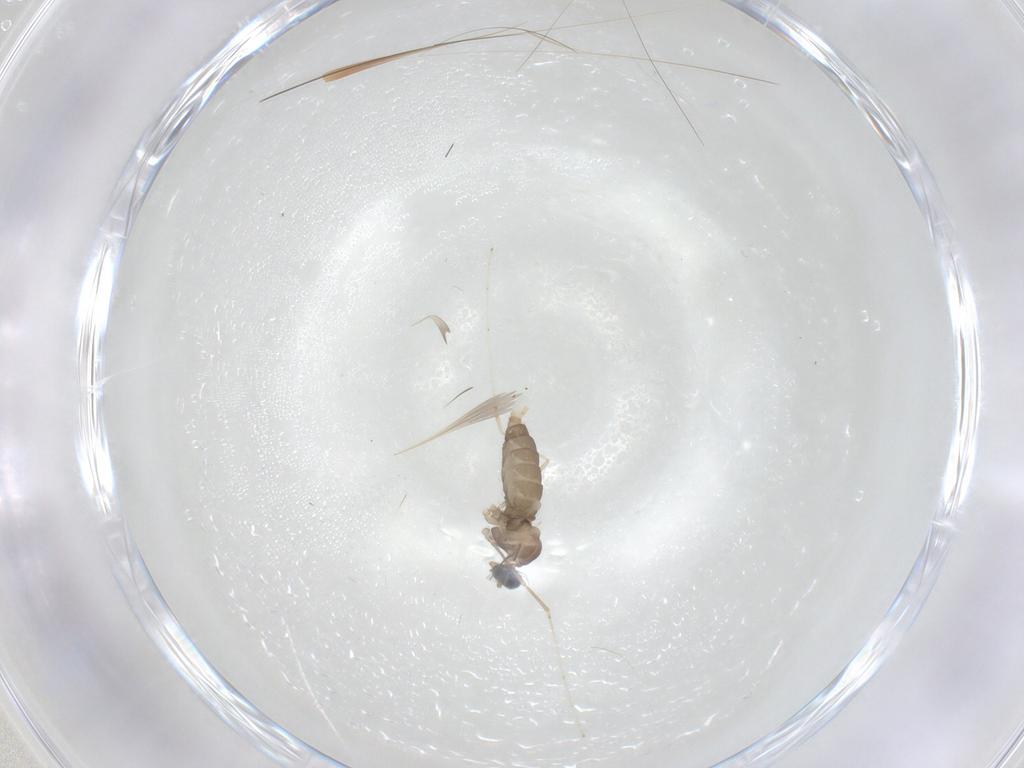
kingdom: Animalia
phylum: Arthropoda
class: Insecta
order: Diptera
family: Cecidomyiidae
